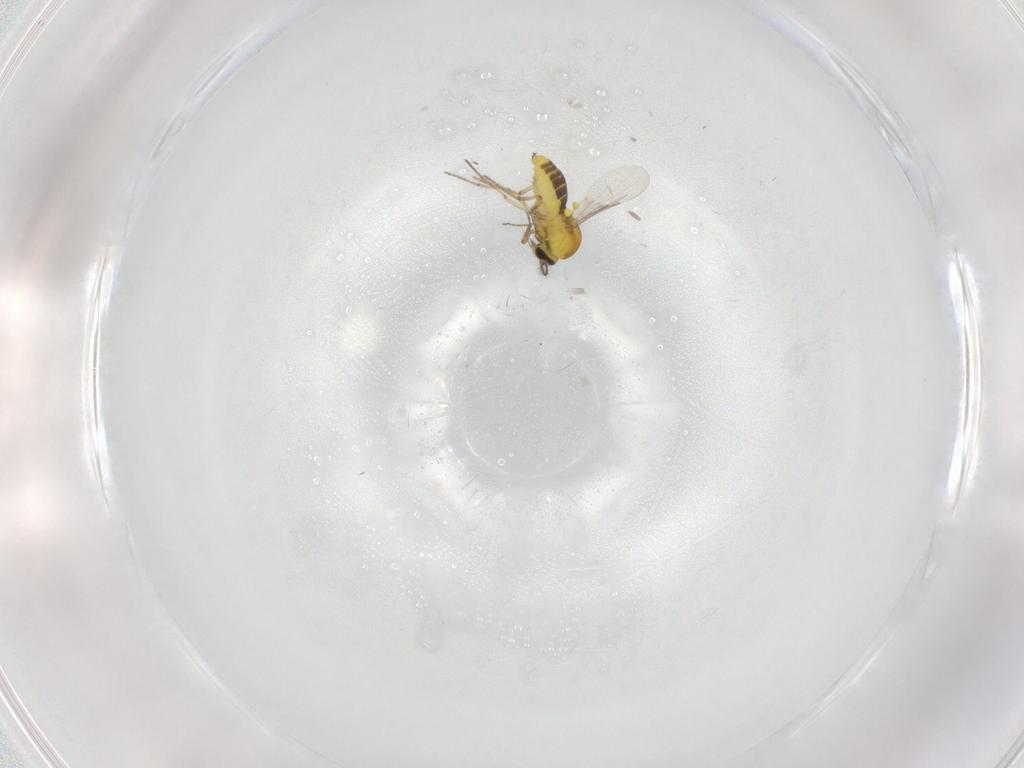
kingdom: Animalia
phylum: Arthropoda
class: Insecta
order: Diptera
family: Ceratopogonidae
